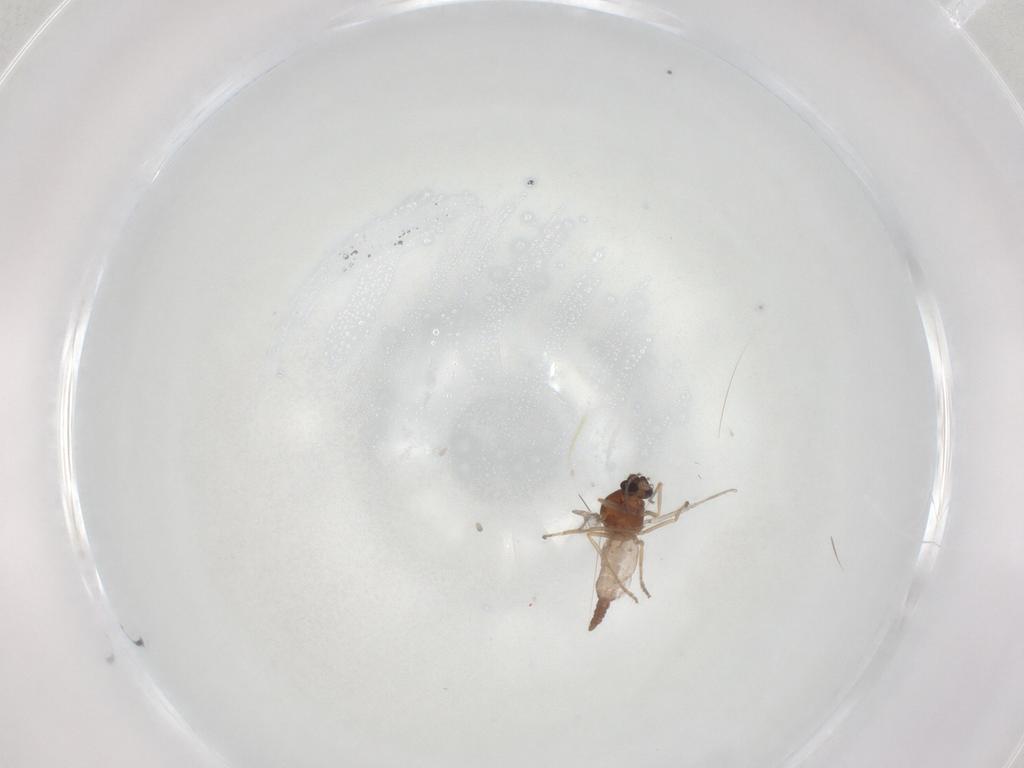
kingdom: Animalia
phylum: Arthropoda
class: Insecta
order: Diptera
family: Ceratopogonidae
